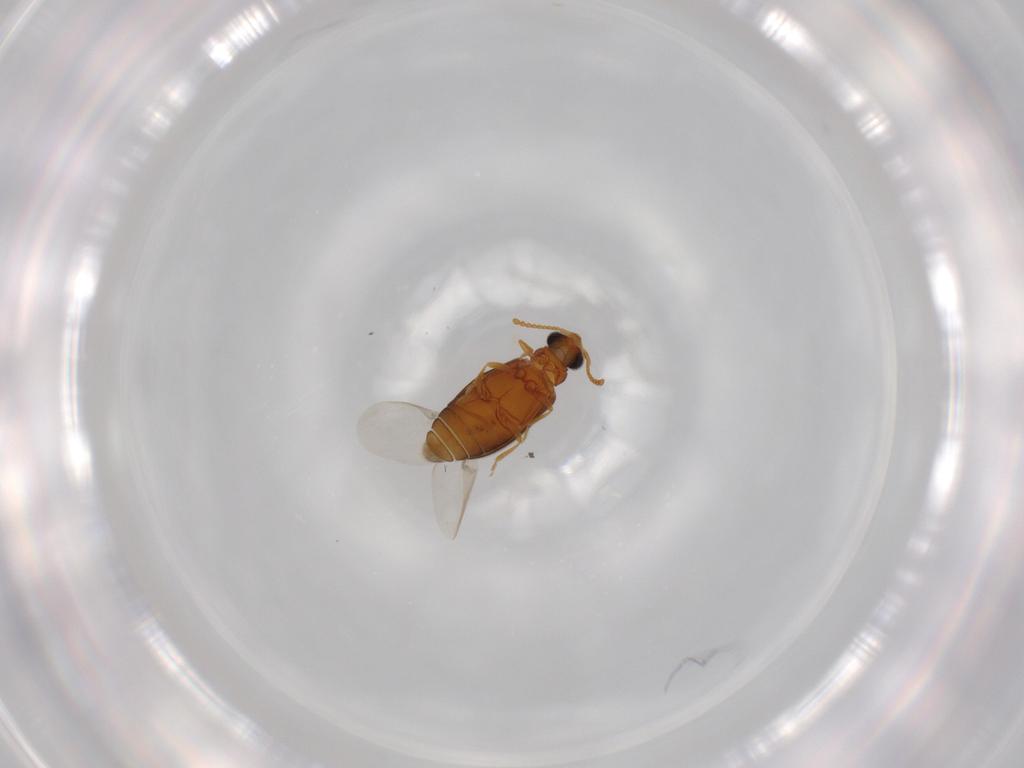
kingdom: Animalia
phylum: Arthropoda
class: Insecta
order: Coleoptera
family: Aderidae
